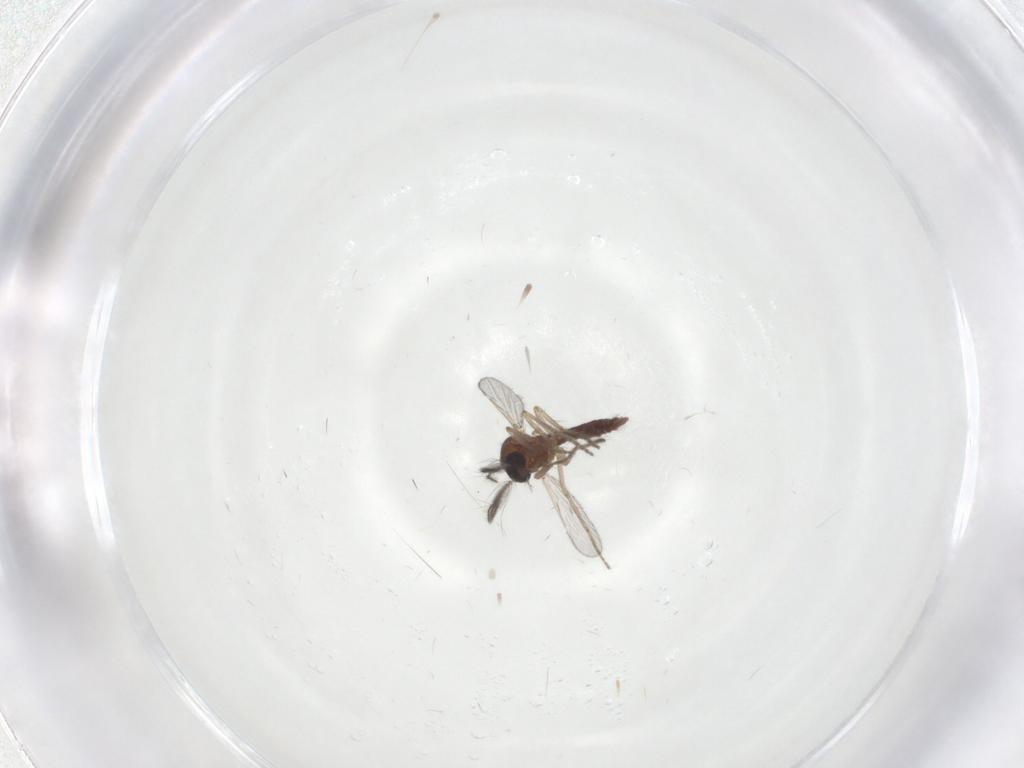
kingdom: Animalia
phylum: Arthropoda
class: Insecta
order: Diptera
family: Ceratopogonidae
